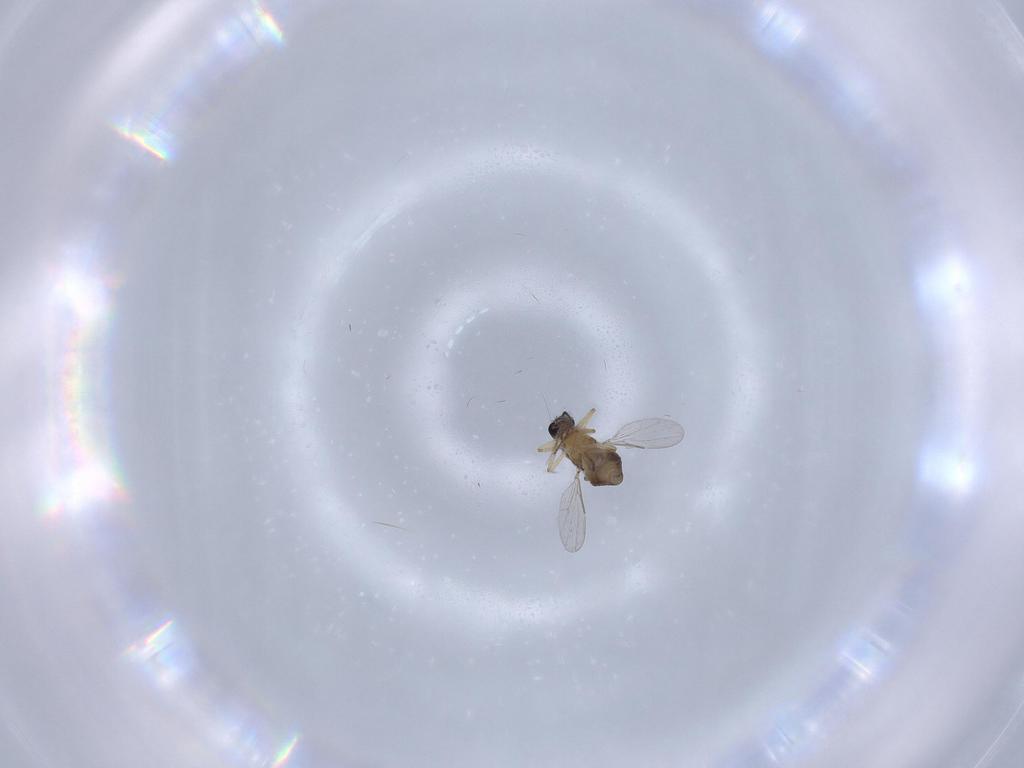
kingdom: Animalia
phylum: Arthropoda
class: Insecta
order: Diptera
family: Ceratopogonidae
